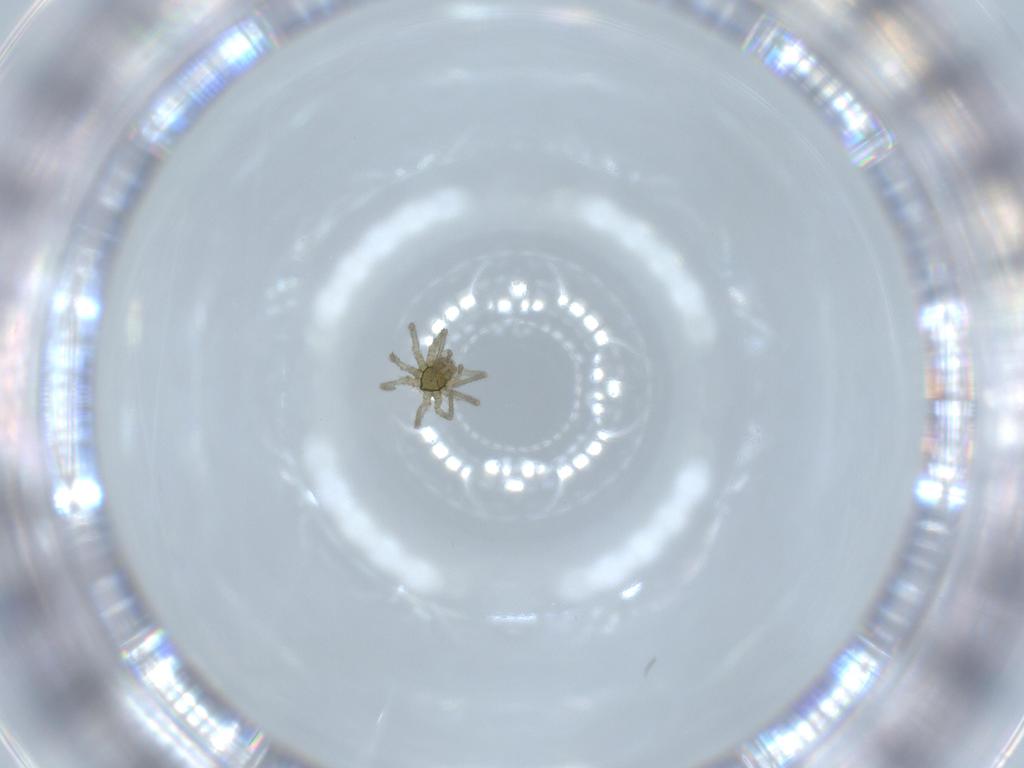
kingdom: Animalia
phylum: Arthropoda
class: Arachnida
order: Araneae
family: Linyphiidae
